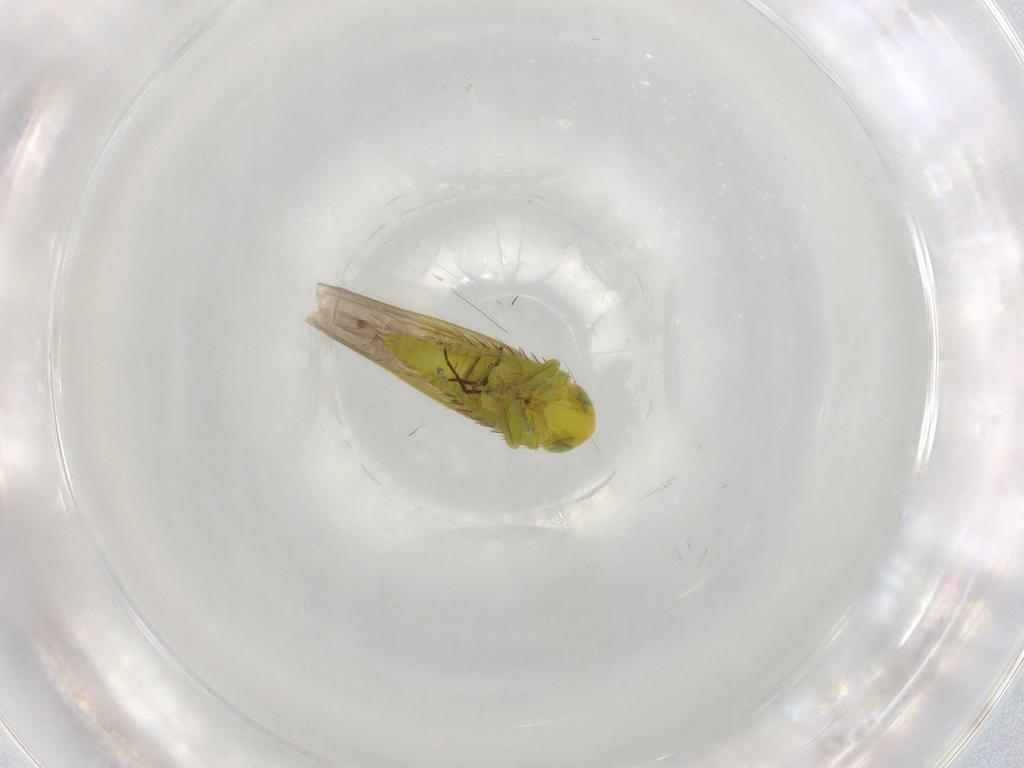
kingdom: Animalia
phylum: Arthropoda
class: Insecta
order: Hemiptera
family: Cicadellidae
